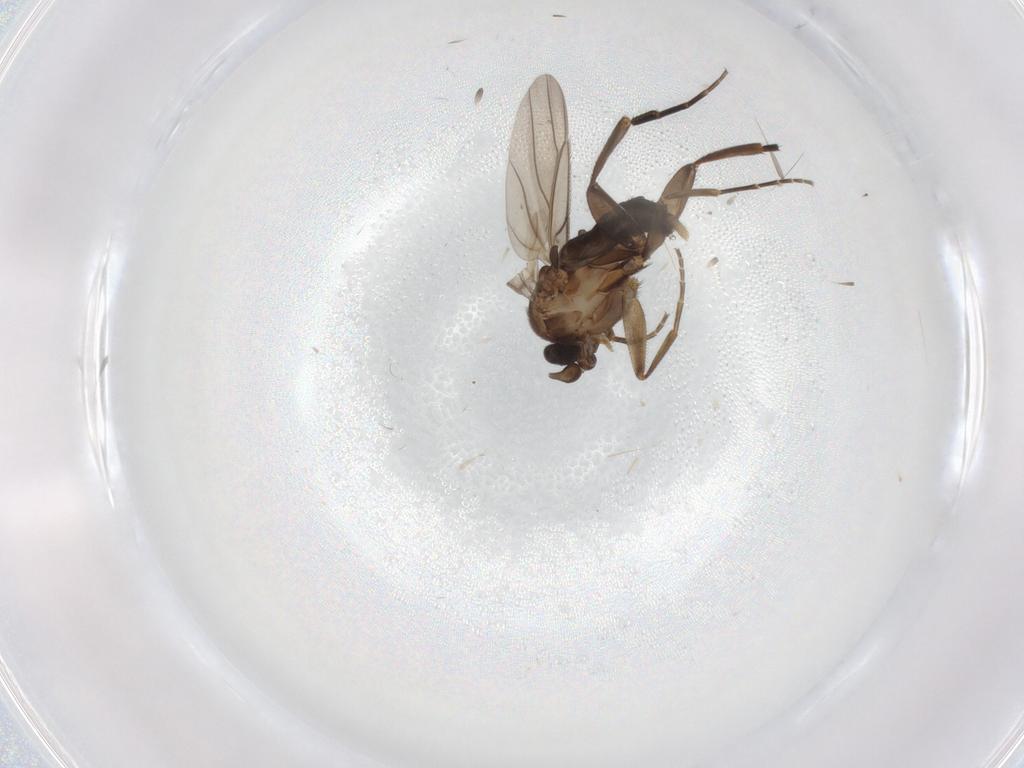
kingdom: Animalia
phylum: Arthropoda
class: Insecta
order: Diptera
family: Phoridae
